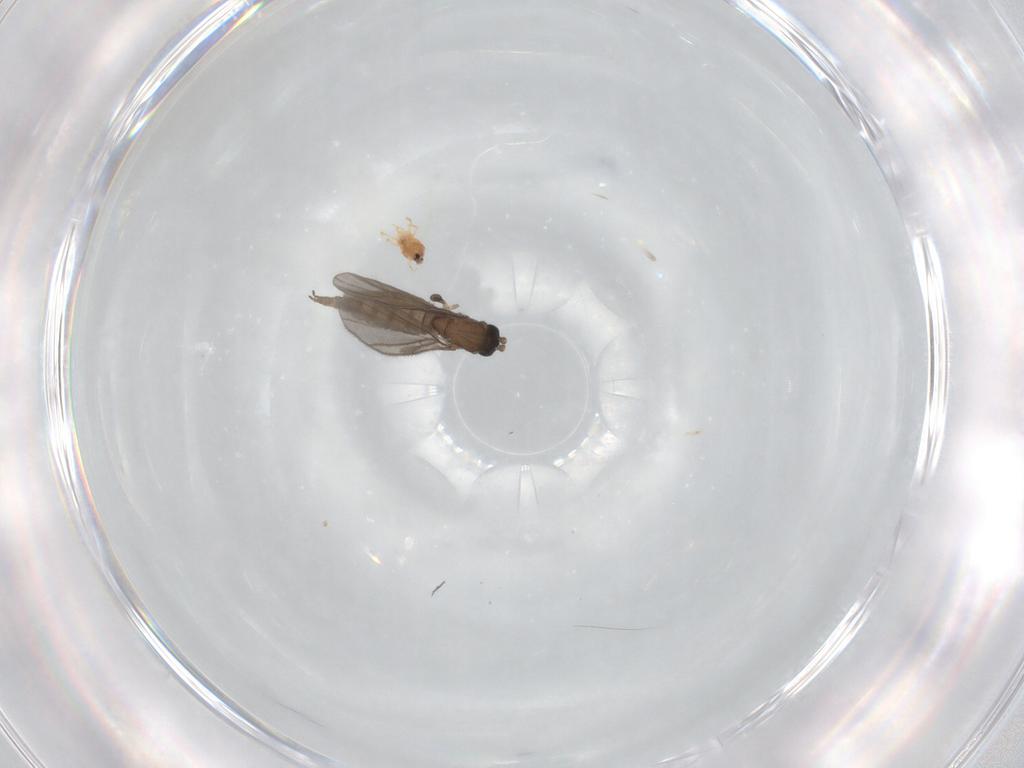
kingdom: Animalia
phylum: Arthropoda
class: Insecta
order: Diptera
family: Sciaridae
